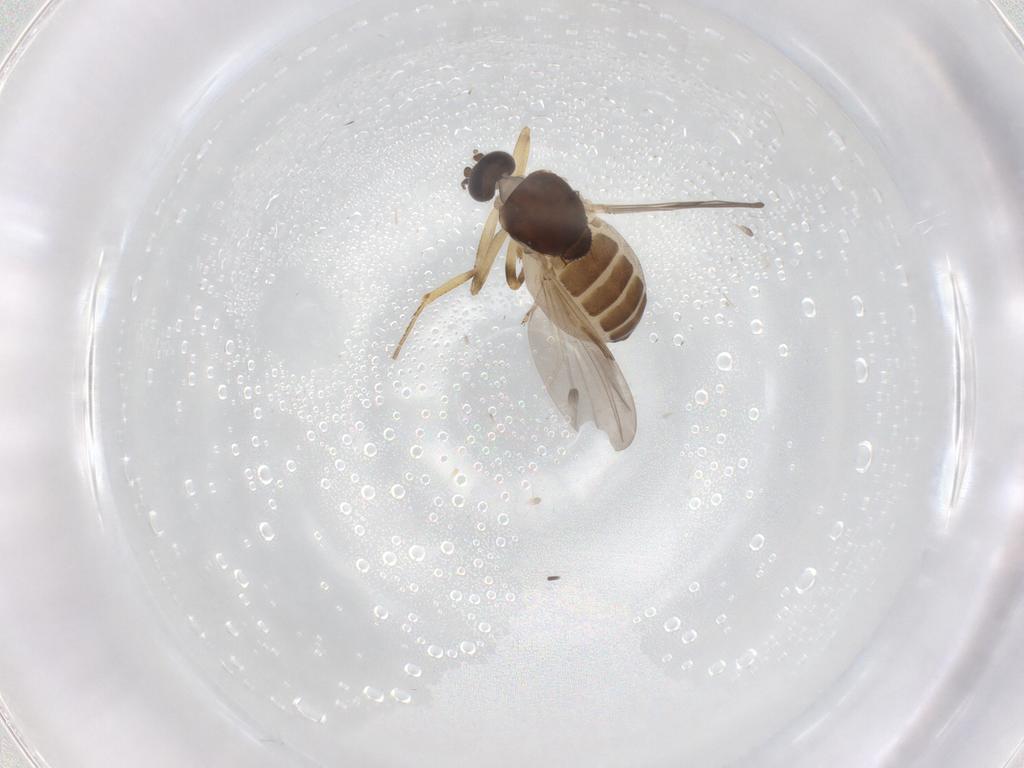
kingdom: Animalia
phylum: Arthropoda
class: Insecta
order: Diptera
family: Ceratopogonidae
